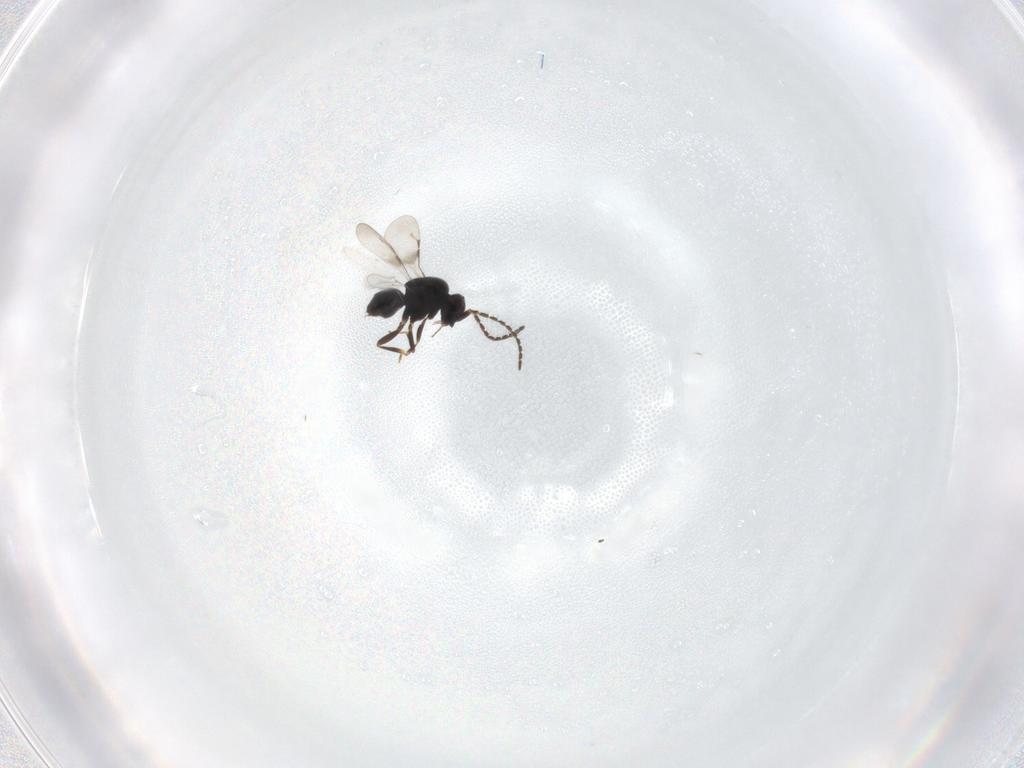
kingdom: Animalia
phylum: Arthropoda
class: Insecta
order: Hymenoptera
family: Ceraphronidae
